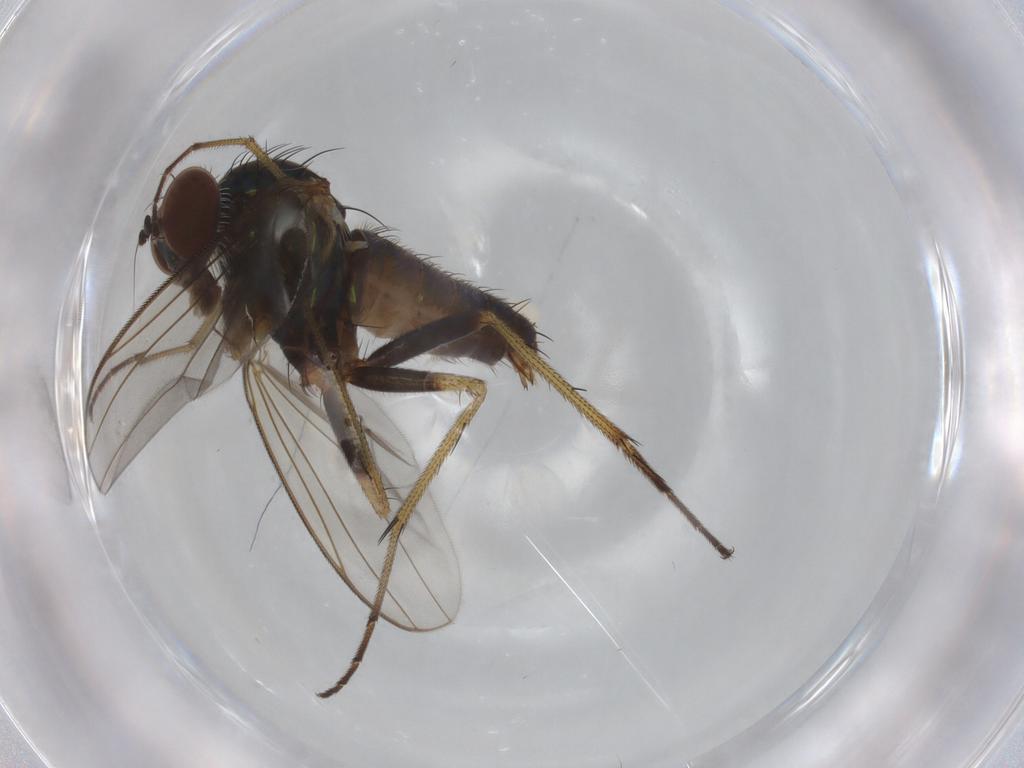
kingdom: Animalia
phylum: Arthropoda
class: Insecta
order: Diptera
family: Dolichopodidae
